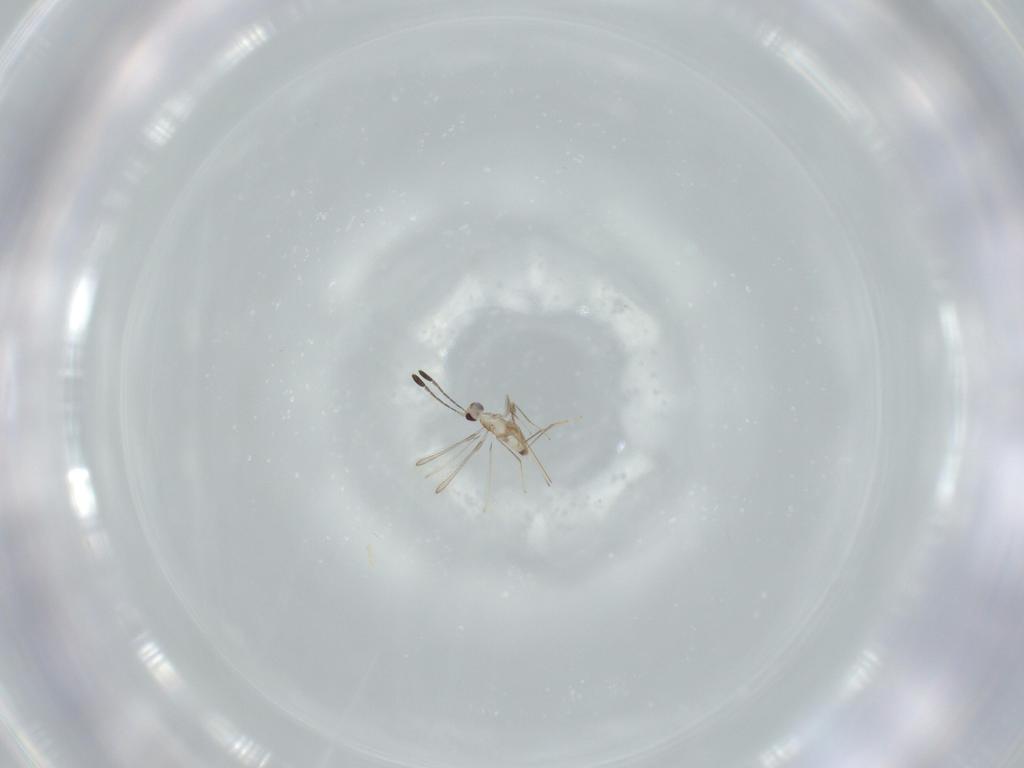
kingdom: Animalia
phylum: Arthropoda
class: Insecta
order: Hymenoptera
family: Mymaridae
